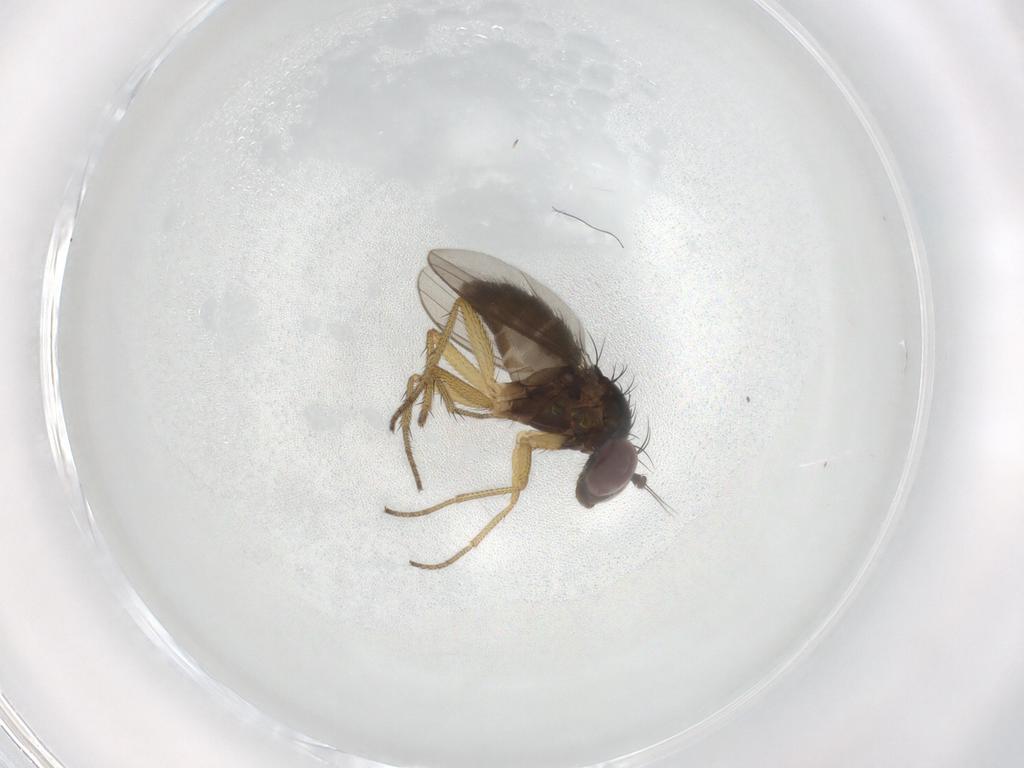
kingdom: Animalia
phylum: Arthropoda
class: Insecta
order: Diptera
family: Dolichopodidae
